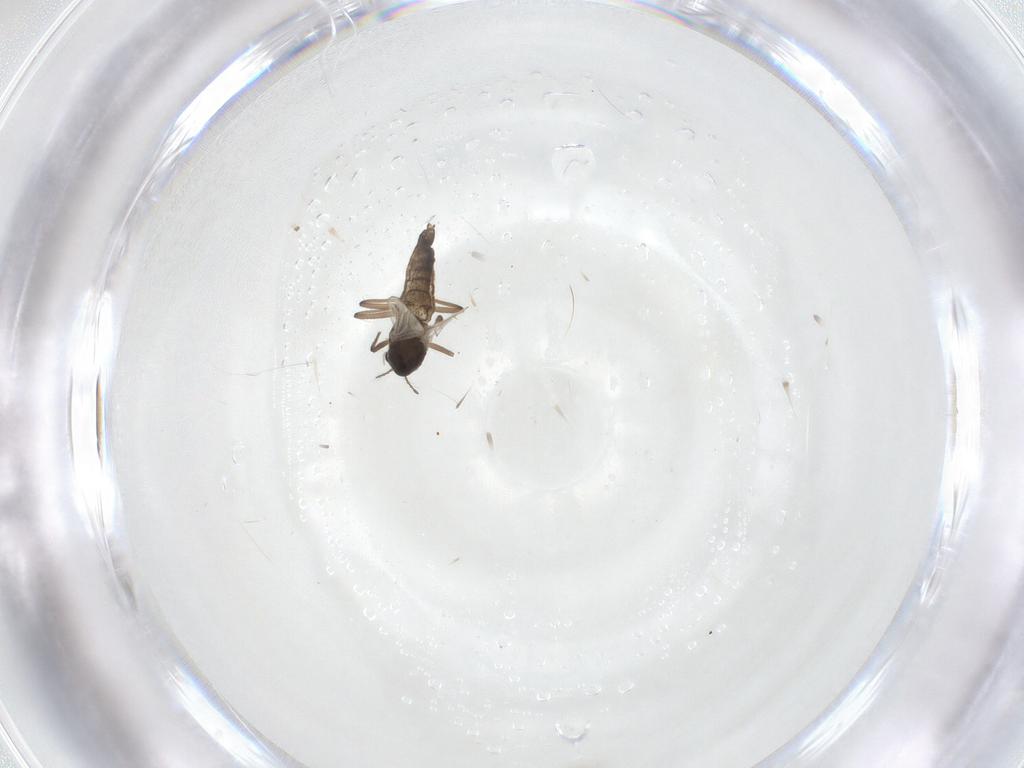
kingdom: Animalia
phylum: Arthropoda
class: Insecta
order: Diptera
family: Chironomidae
